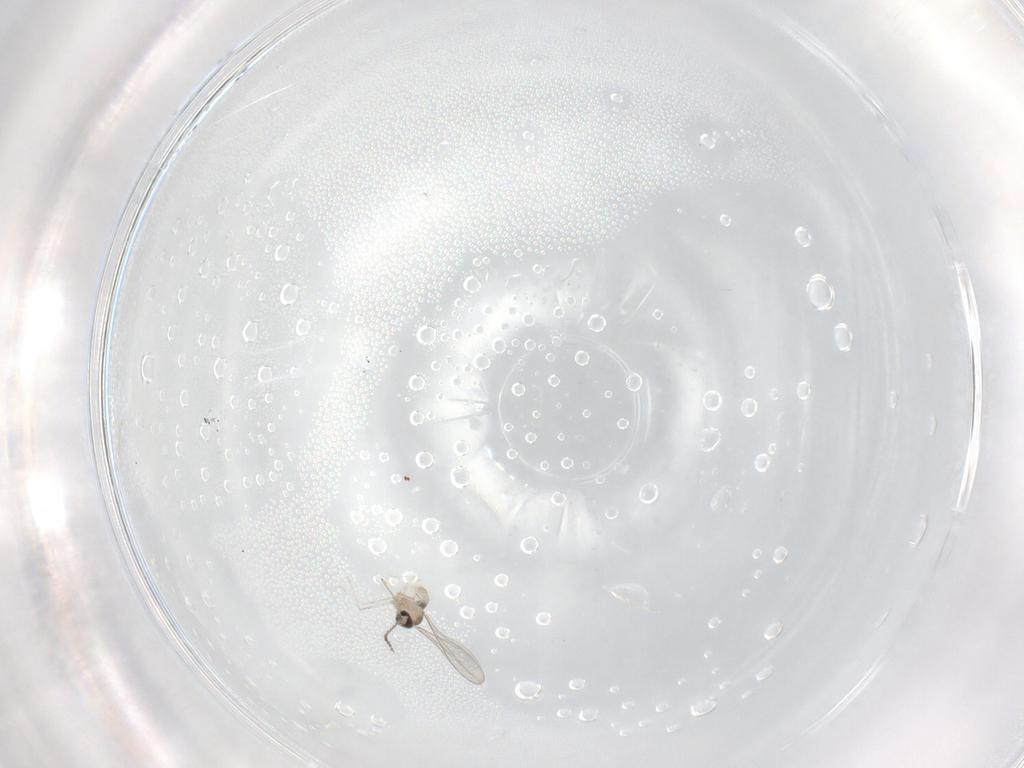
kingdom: Animalia
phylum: Arthropoda
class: Insecta
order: Diptera
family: Cecidomyiidae
